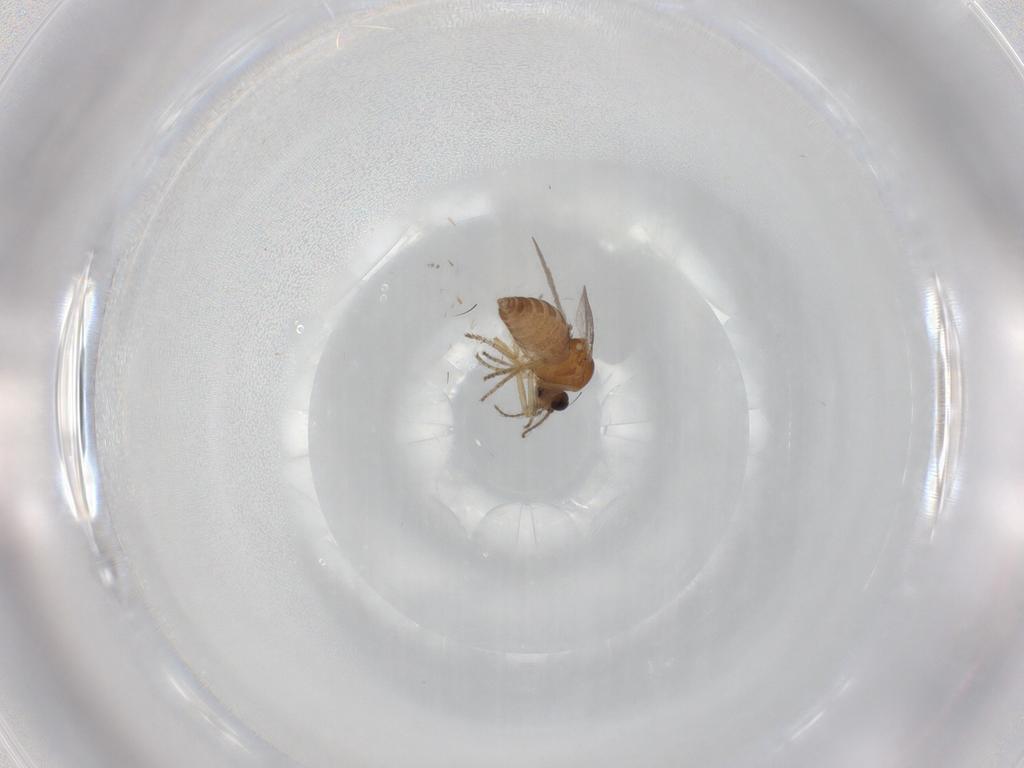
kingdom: Animalia
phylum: Arthropoda
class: Insecta
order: Diptera
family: Ceratopogonidae
